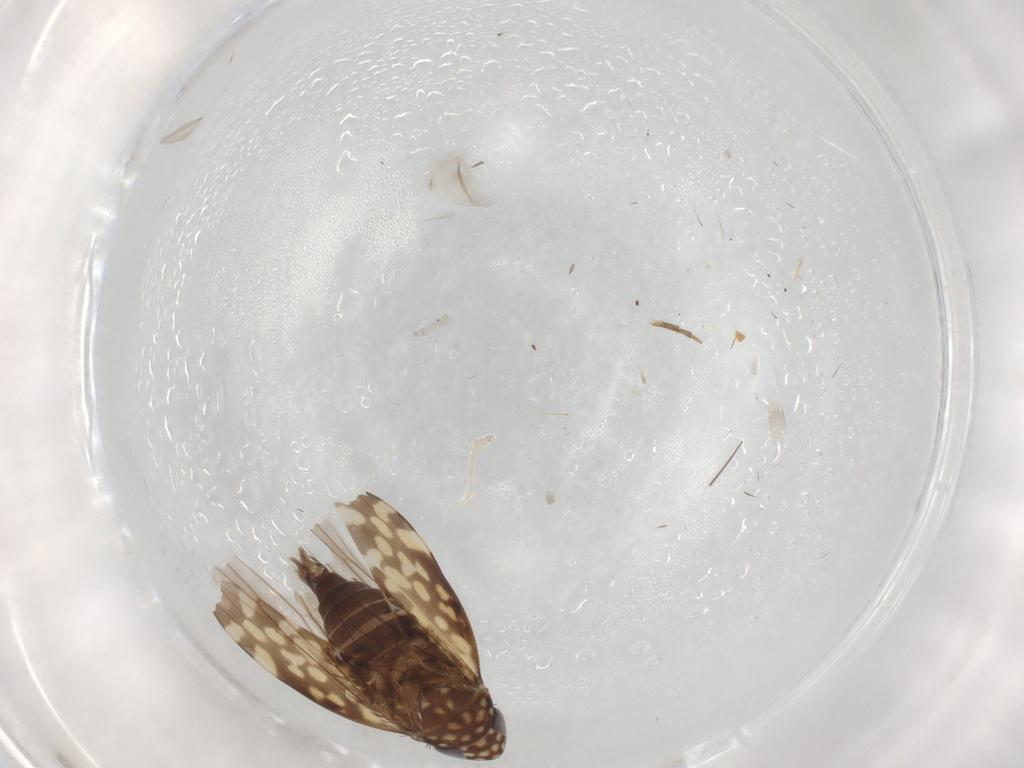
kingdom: Animalia
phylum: Arthropoda
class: Insecta
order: Hemiptera
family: Cicadellidae
